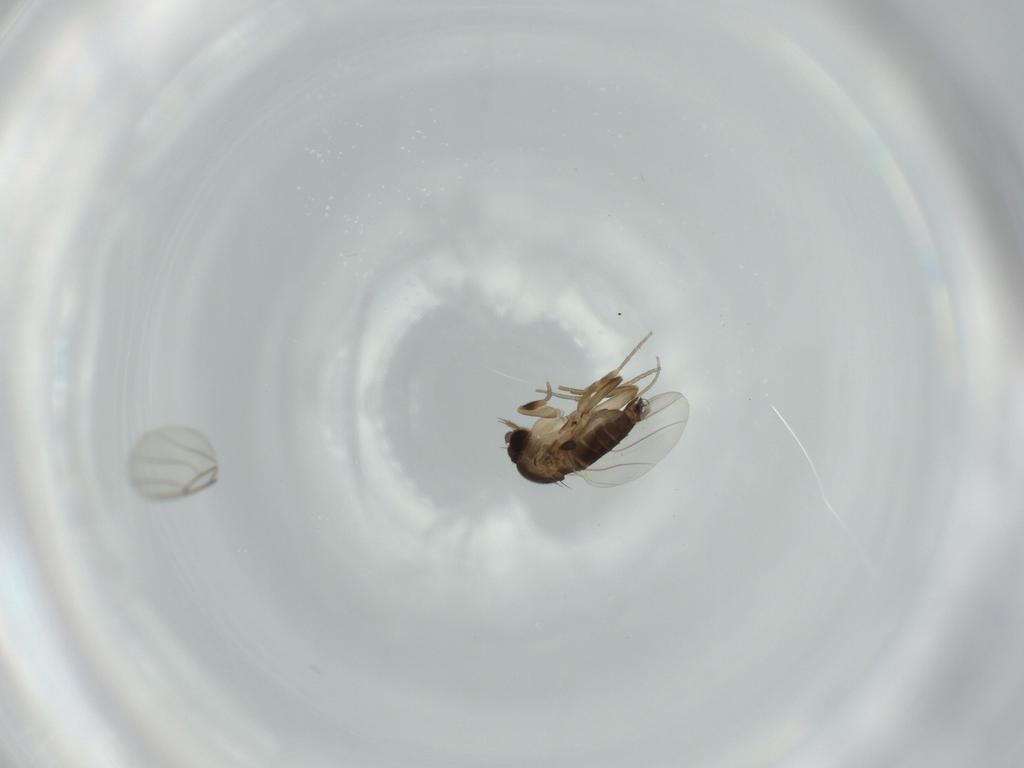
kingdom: Animalia
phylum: Arthropoda
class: Insecta
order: Diptera
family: Phoridae
